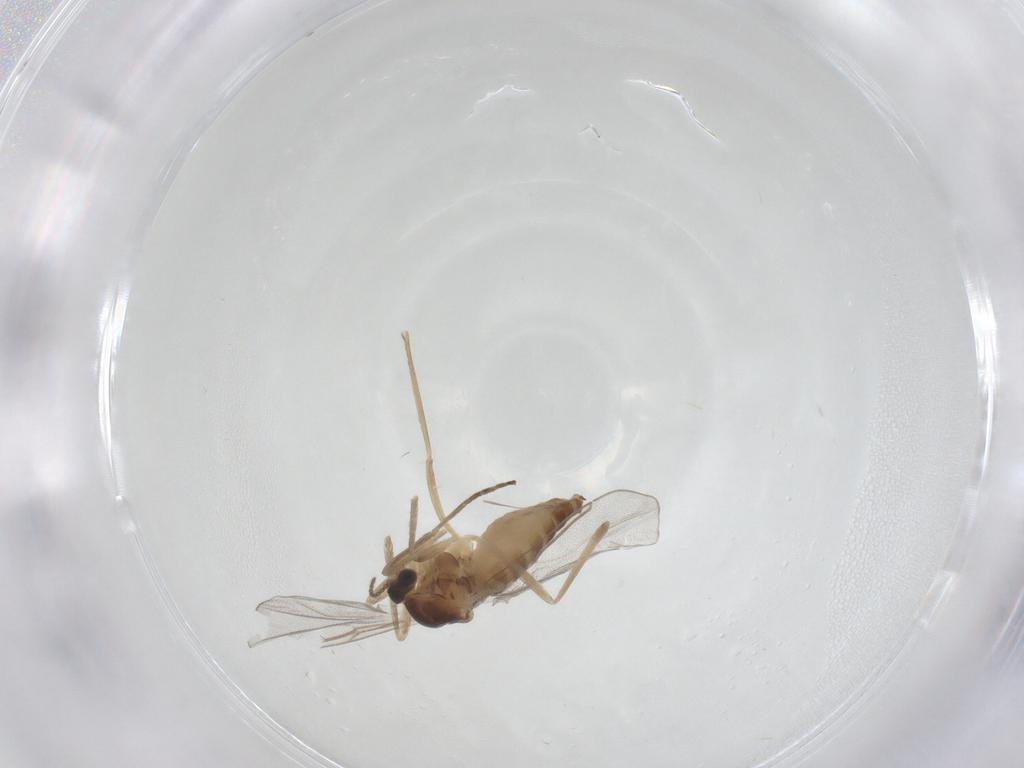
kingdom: Animalia
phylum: Arthropoda
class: Insecta
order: Diptera
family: Cecidomyiidae
